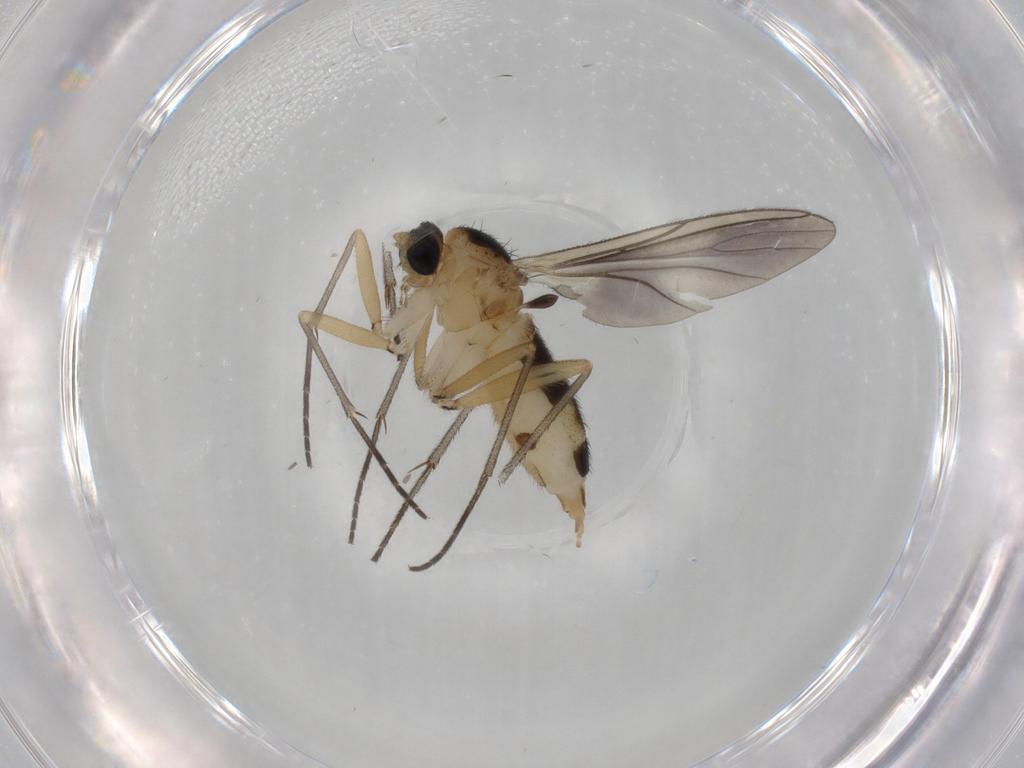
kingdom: Animalia
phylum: Arthropoda
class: Insecta
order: Diptera
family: Sciaridae
